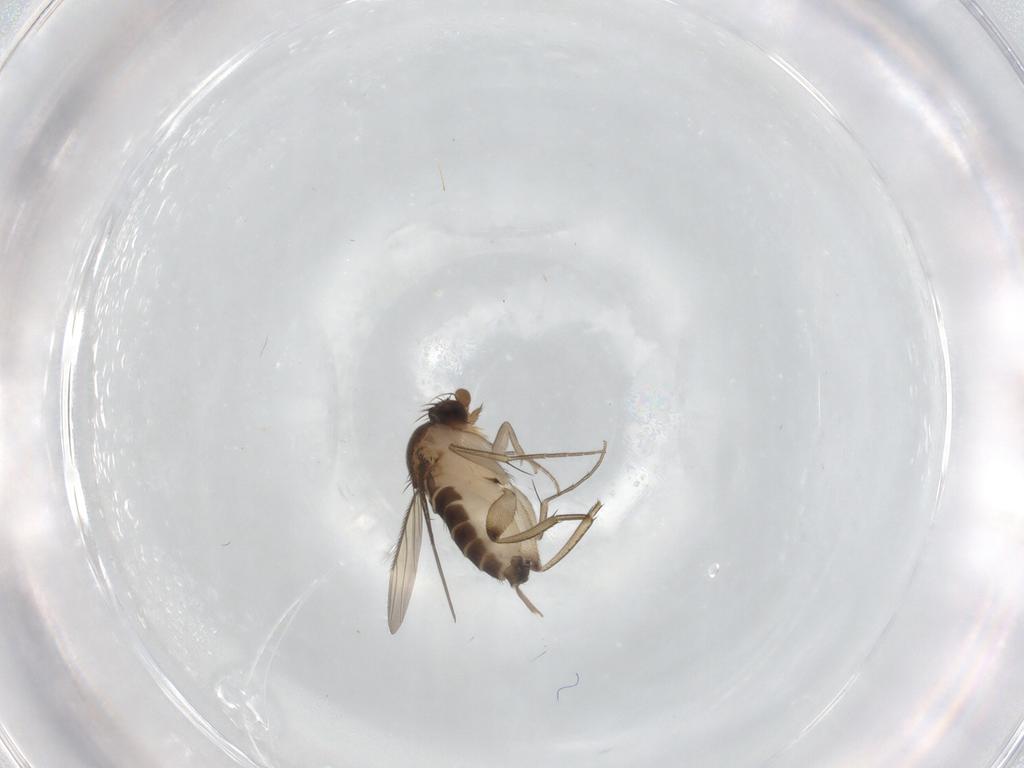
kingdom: Animalia
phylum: Arthropoda
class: Insecta
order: Diptera
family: Phoridae
